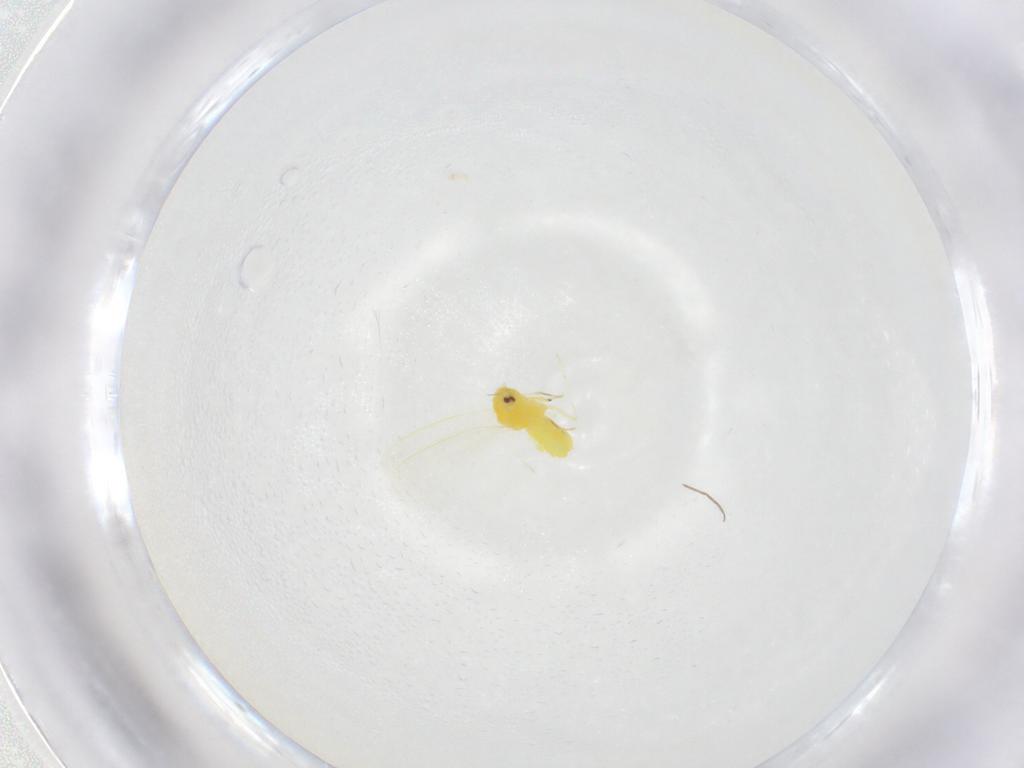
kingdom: Animalia
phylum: Arthropoda
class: Insecta
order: Hemiptera
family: Aleyrodidae
